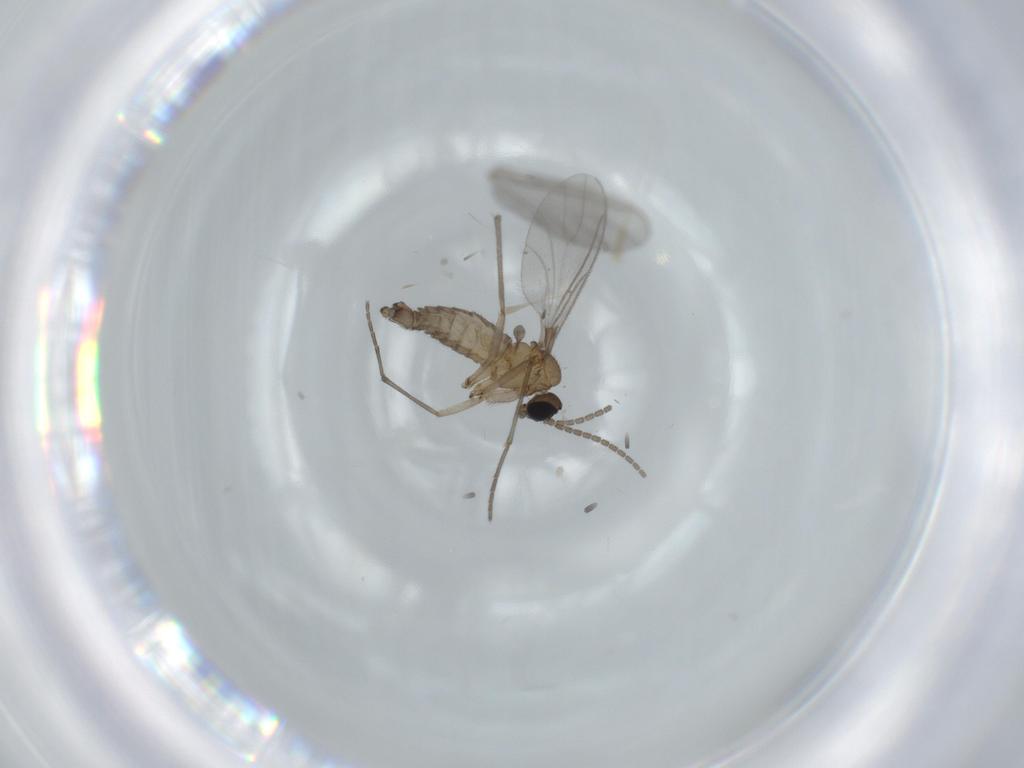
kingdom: Animalia
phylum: Arthropoda
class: Insecta
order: Diptera
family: Sciaridae
